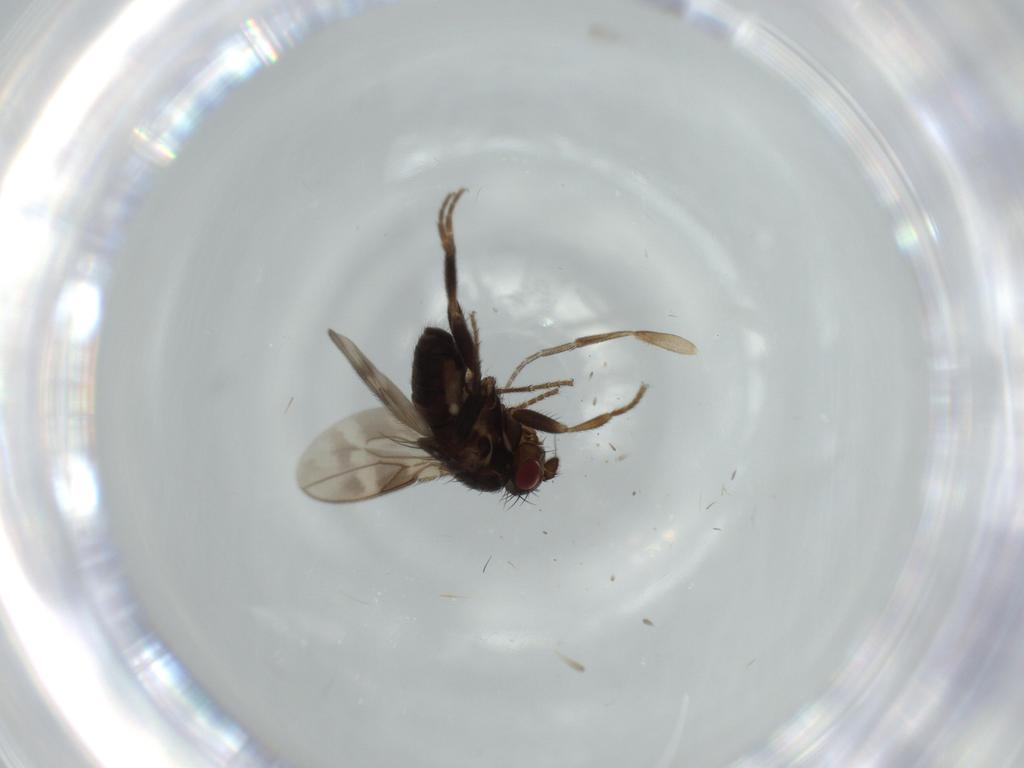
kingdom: Animalia
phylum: Arthropoda
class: Insecta
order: Diptera
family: Sphaeroceridae
